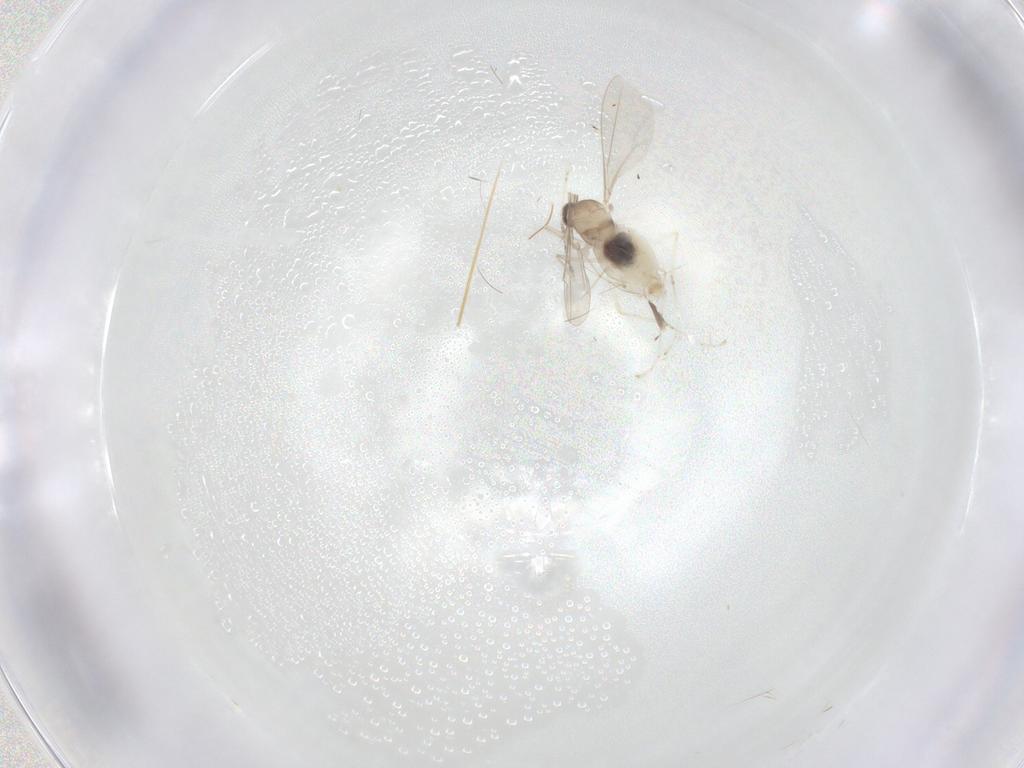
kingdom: Animalia
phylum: Arthropoda
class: Insecta
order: Diptera
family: Cecidomyiidae
